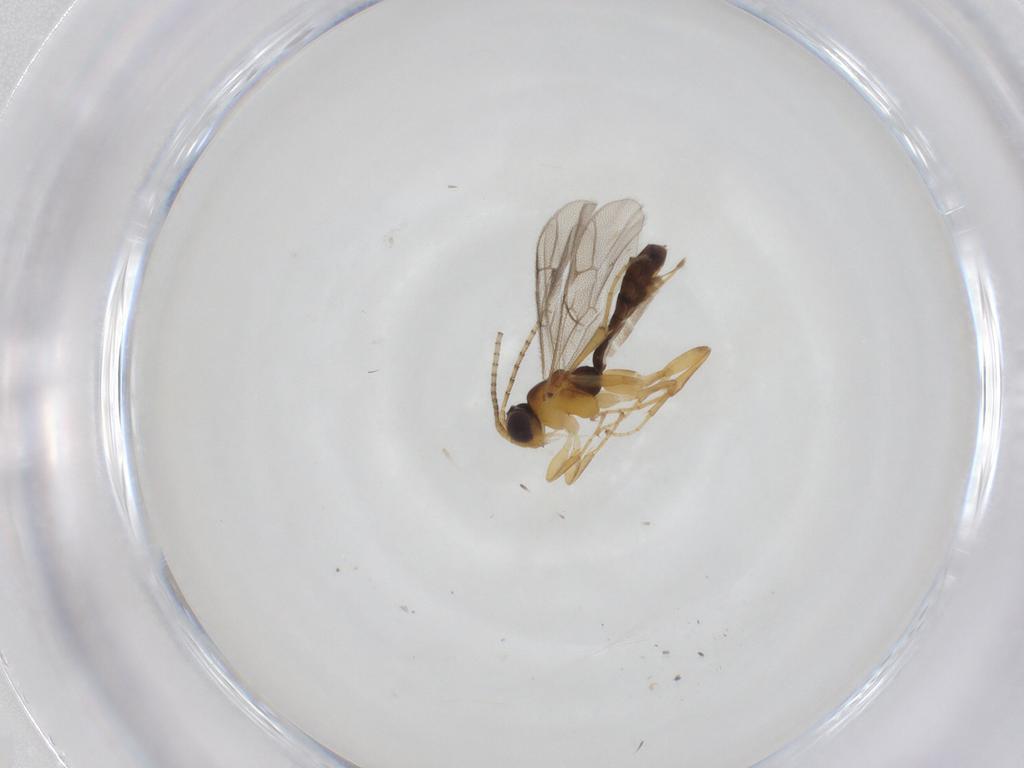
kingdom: Animalia
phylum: Arthropoda
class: Insecta
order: Hymenoptera
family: Ichneumonidae
